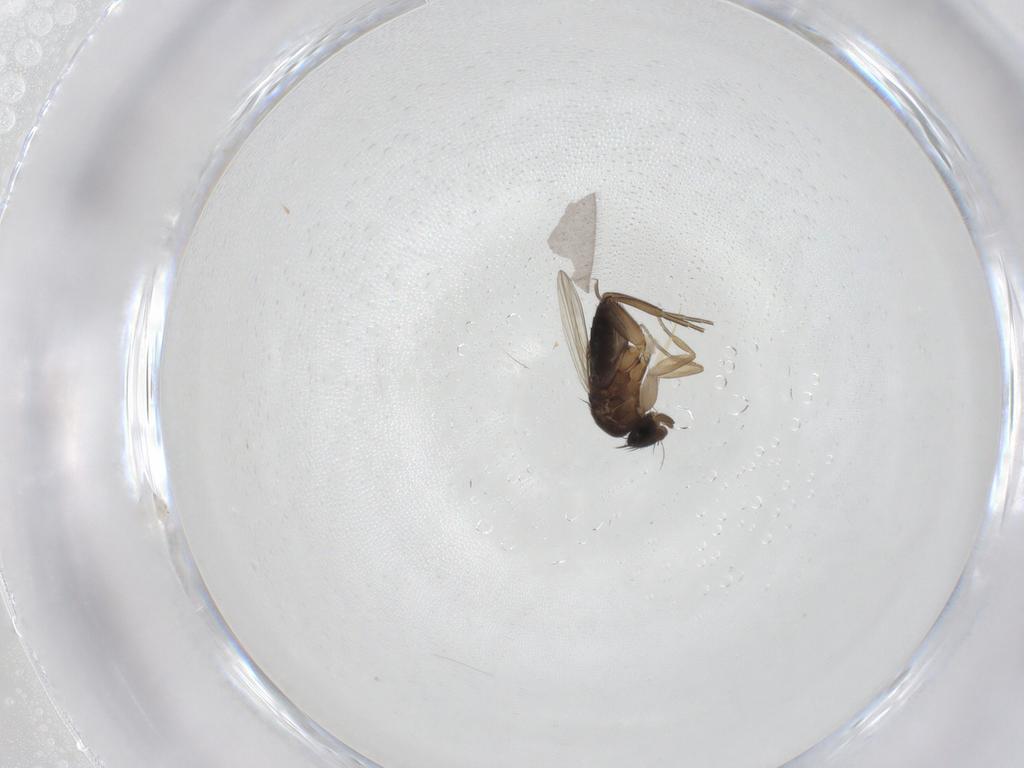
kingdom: Animalia
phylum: Arthropoda
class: Insecta
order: Diptera
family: Phoridae
